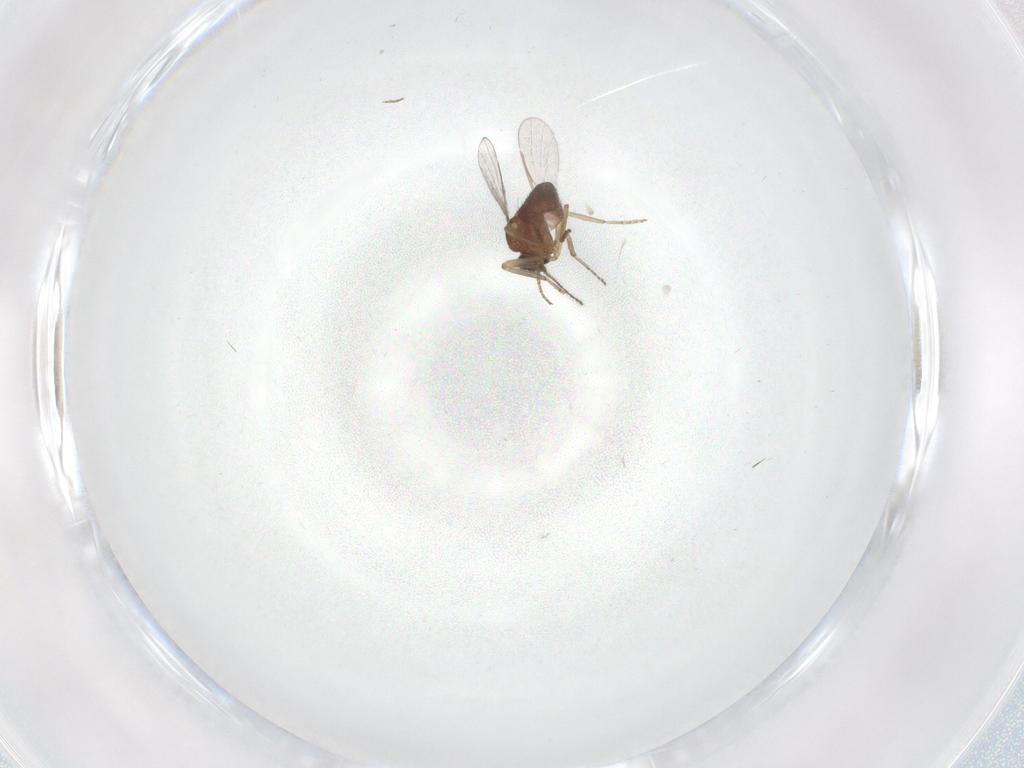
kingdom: Animalia
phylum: Arthropoda
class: Insecta
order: Diptera
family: Ceratopogonidae
